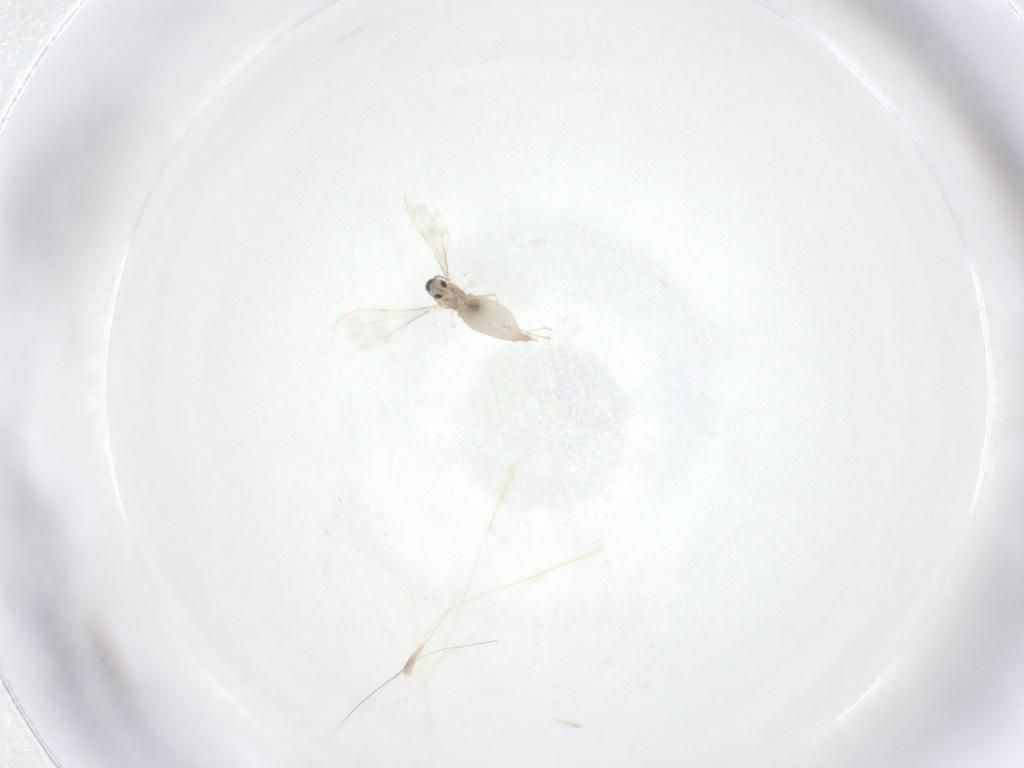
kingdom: Animalia
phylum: Arthropoda
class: Insecta
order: Diptera
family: Cecidomyiidae
